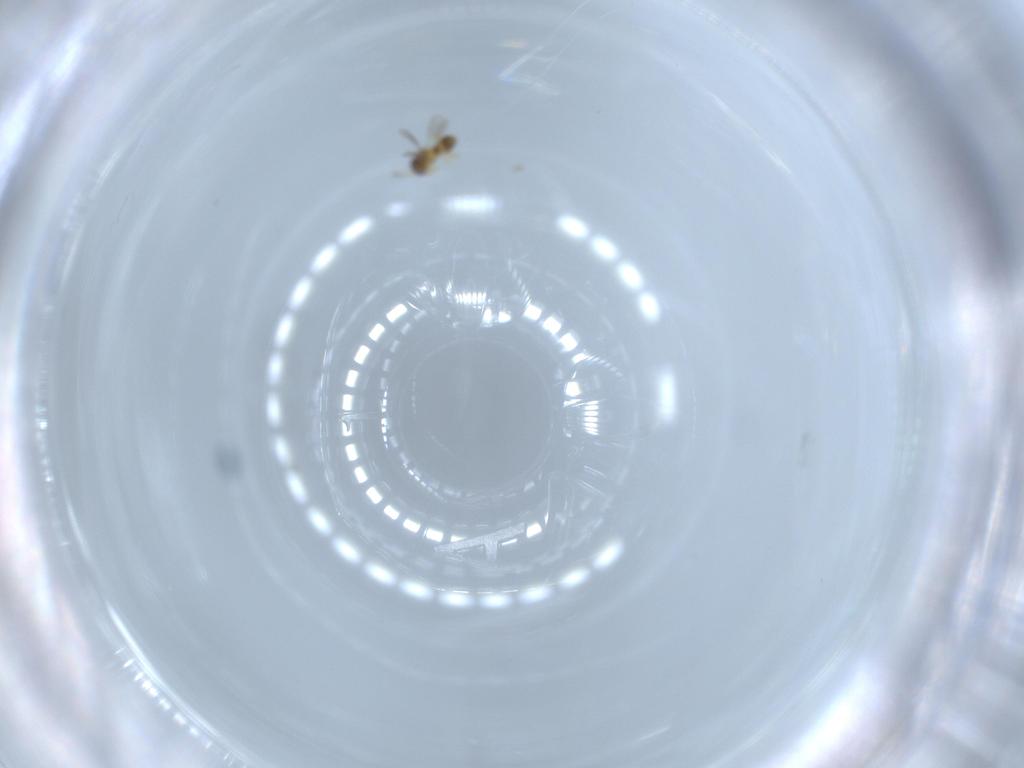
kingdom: Animalia
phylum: Arthropoda
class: Insecta
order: Hymenoptera
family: Platygastridae
